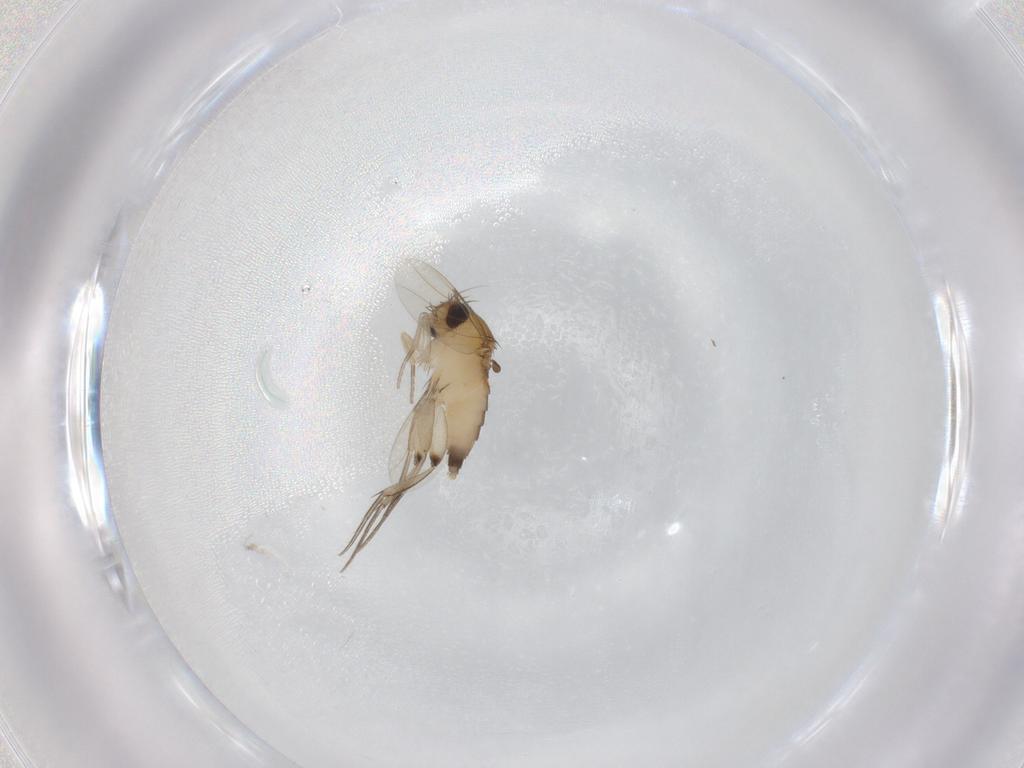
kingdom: Animalia
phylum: Arthropoda
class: Insecta
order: Diptera
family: Phoridae
